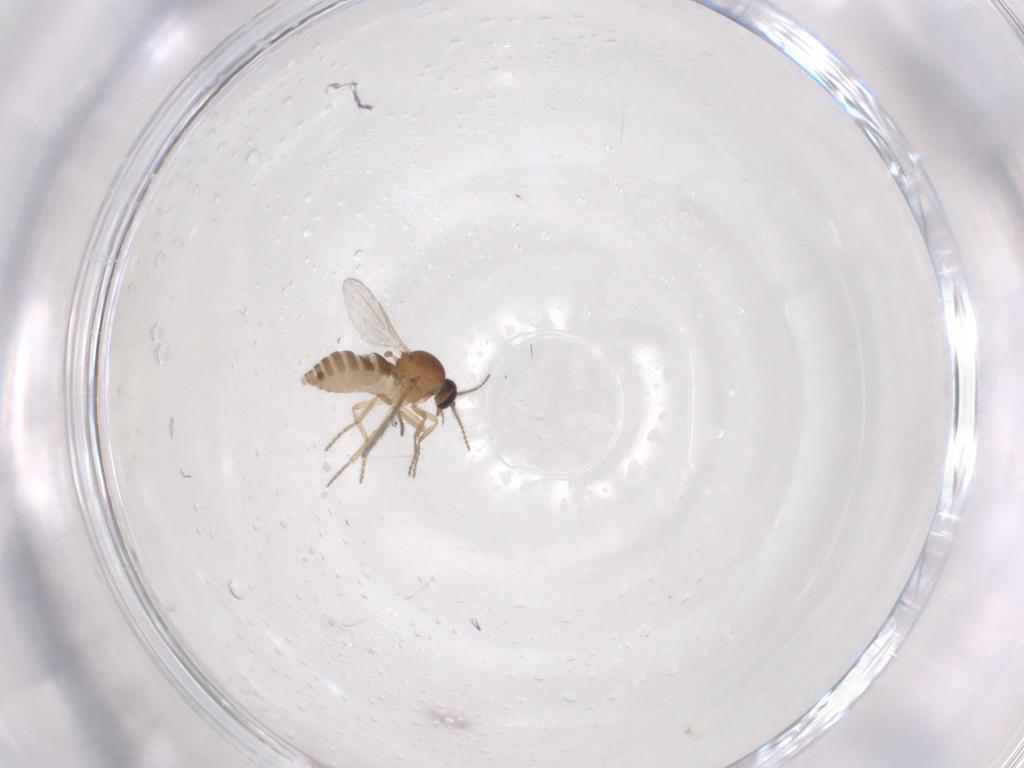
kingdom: Animalia
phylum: Arthropoda
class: Insecta
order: Diptera
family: Ceratopogonidae
